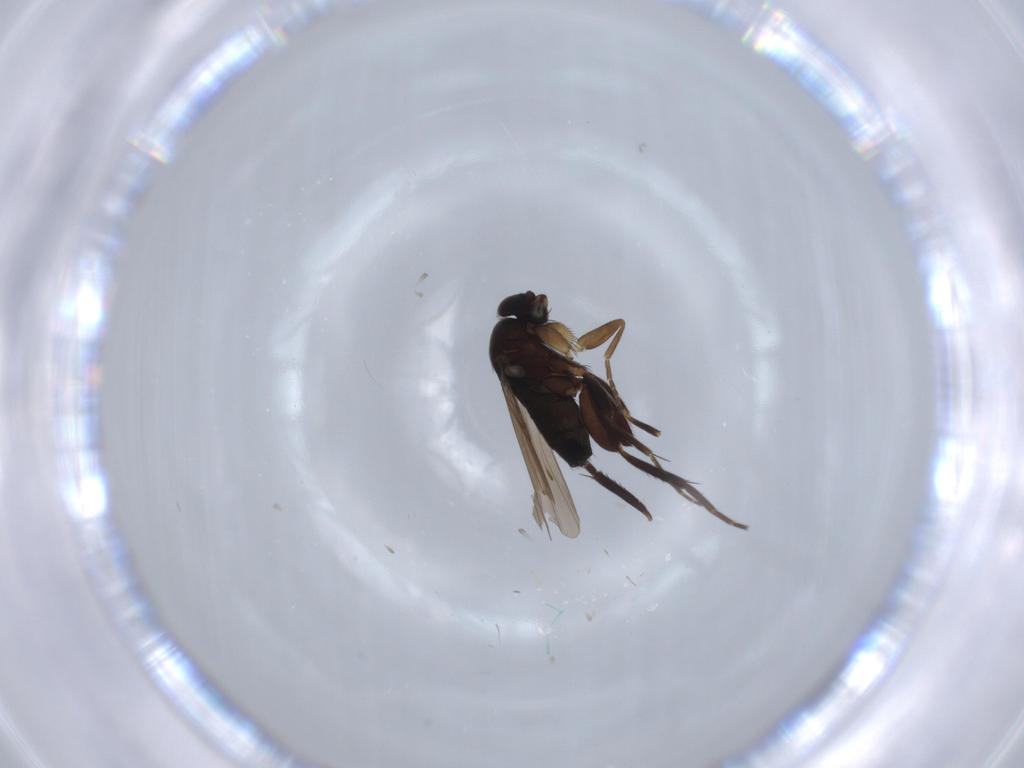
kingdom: Animalia
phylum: Arthropoda
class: Insecta
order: Diptera
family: Phoridae
